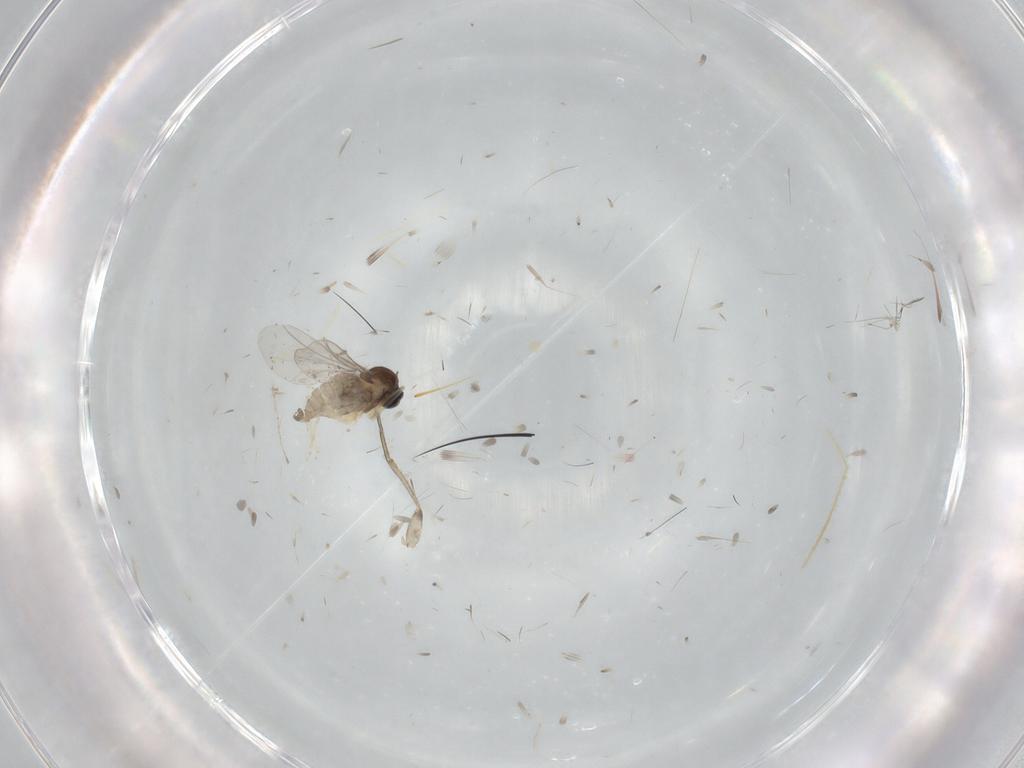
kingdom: Animalia
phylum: Arthropoda
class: Insecta
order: Diptera
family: Cecidomyiidae
